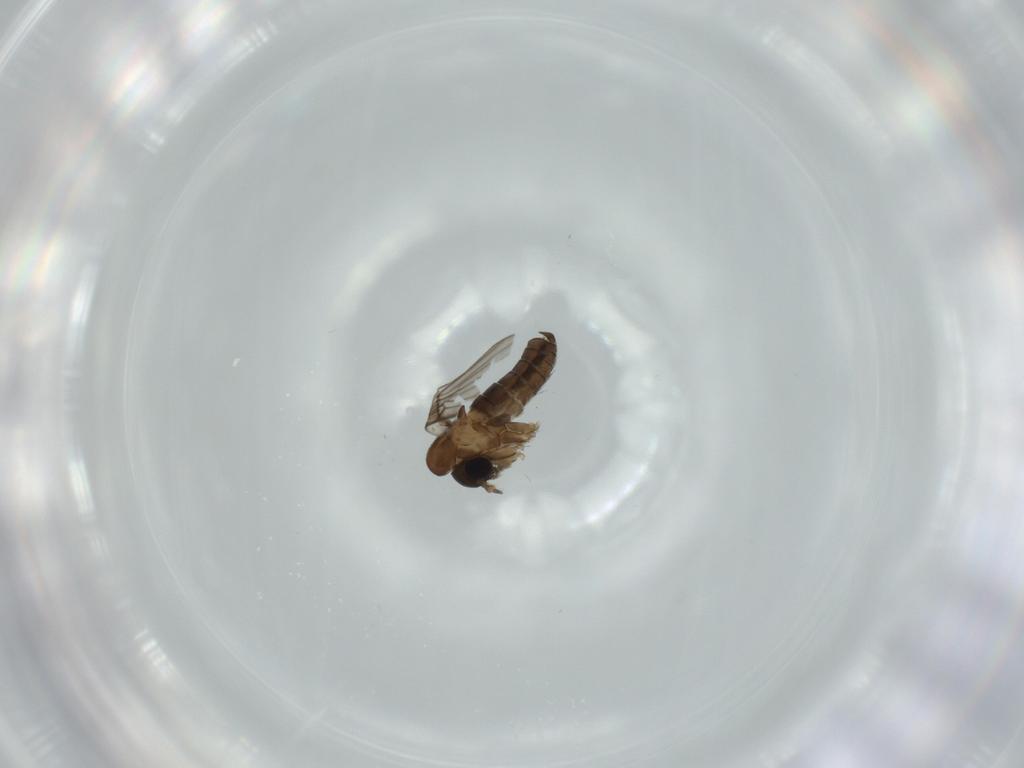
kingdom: Animalia
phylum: Arthropoda
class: Insecta
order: Diptera
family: Psychodidae
